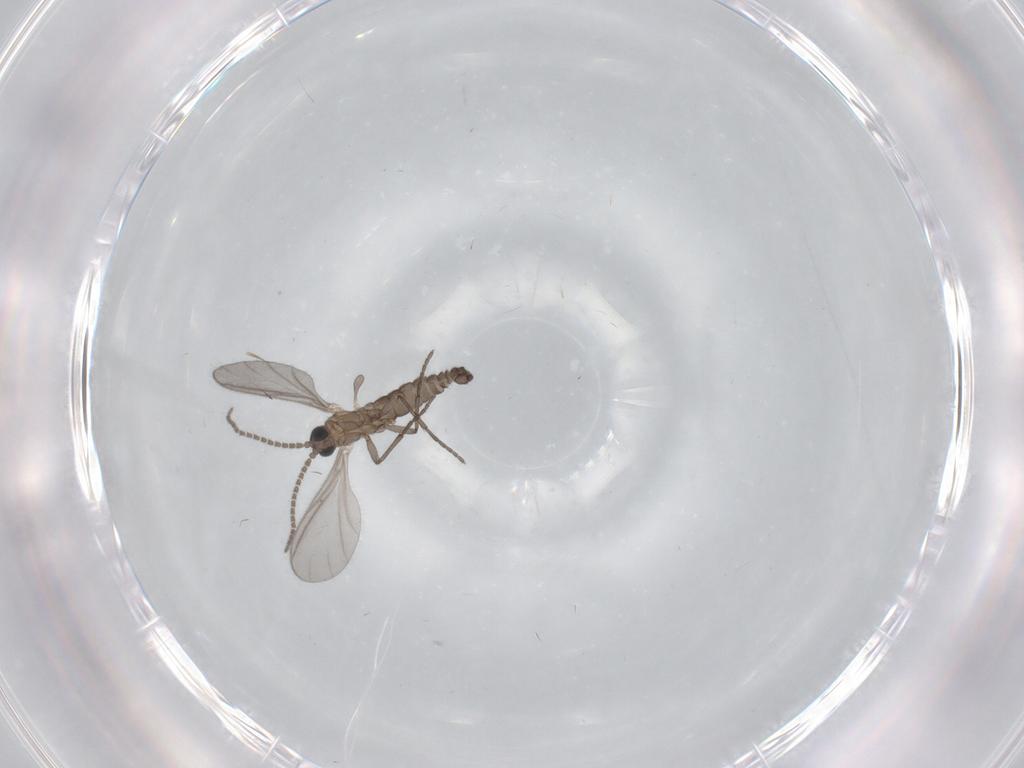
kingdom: Animalia
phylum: Arthropoda
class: Insecta
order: Diptera
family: Sciaridae
